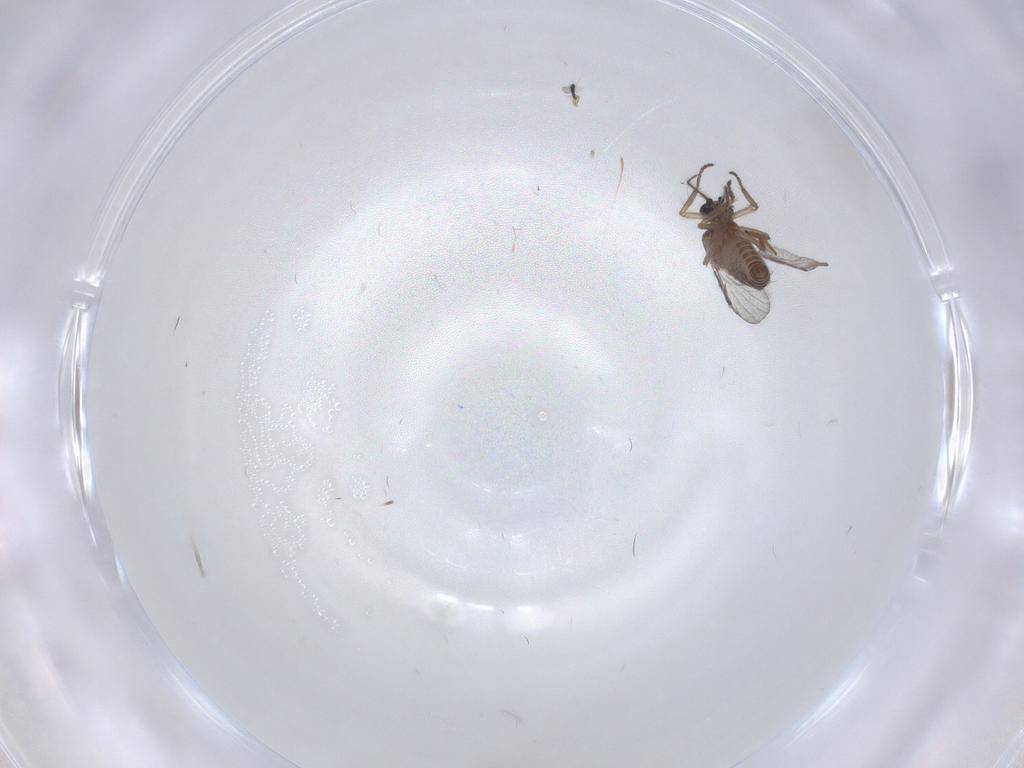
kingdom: Animalia
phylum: Arthropoda
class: Insecta
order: Diptera
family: Ceratopogonidae
